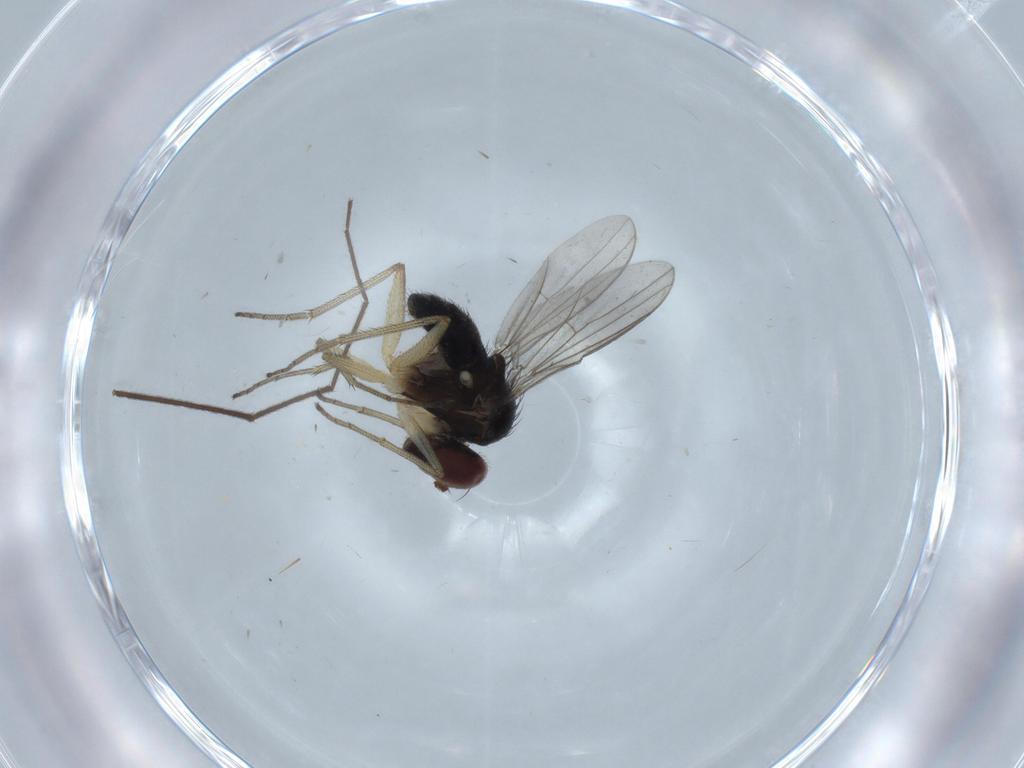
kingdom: Animalia
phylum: Arthropoda
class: Insecta
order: Diptera
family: Dolichopodidae
